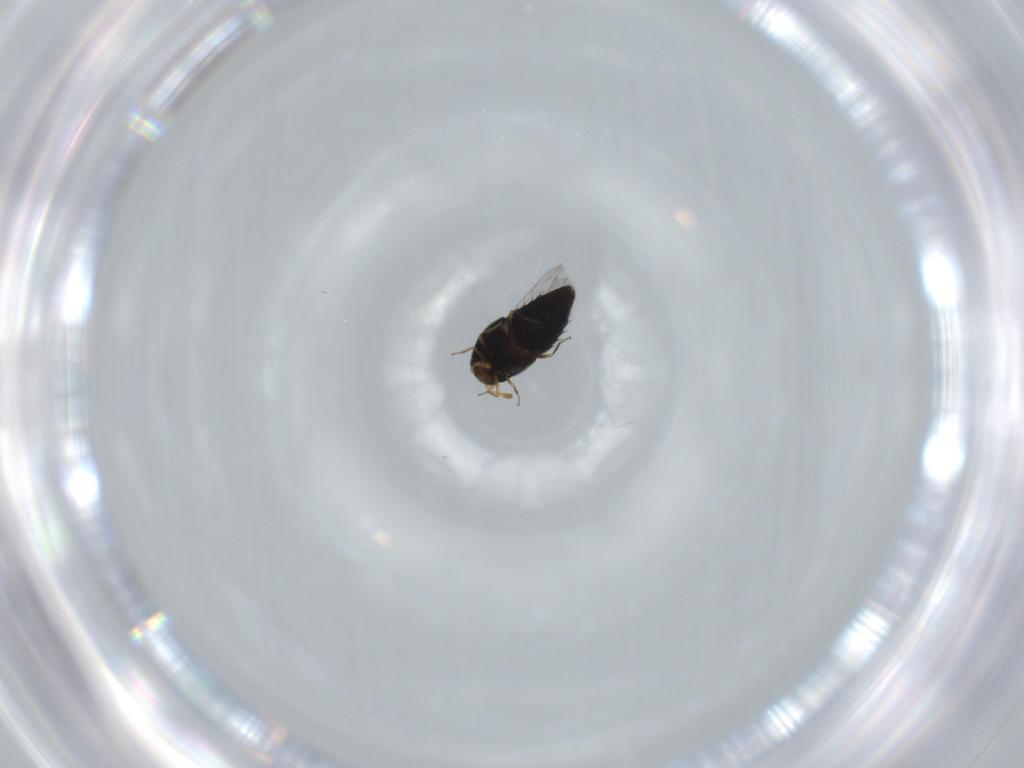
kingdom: Animalia
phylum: Arthropoda
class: Insecta
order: Coleoptera
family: Staphylinidae
